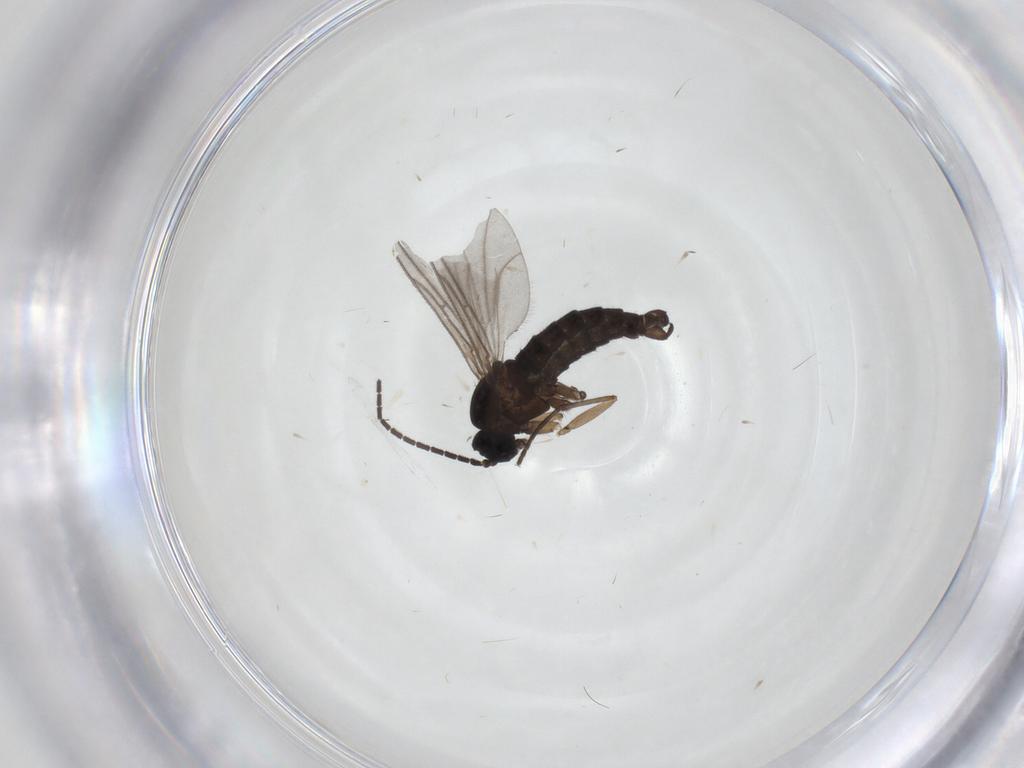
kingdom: Animalia
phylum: Arthropoda
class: Insecta
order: Diptera
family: Sciaridae
